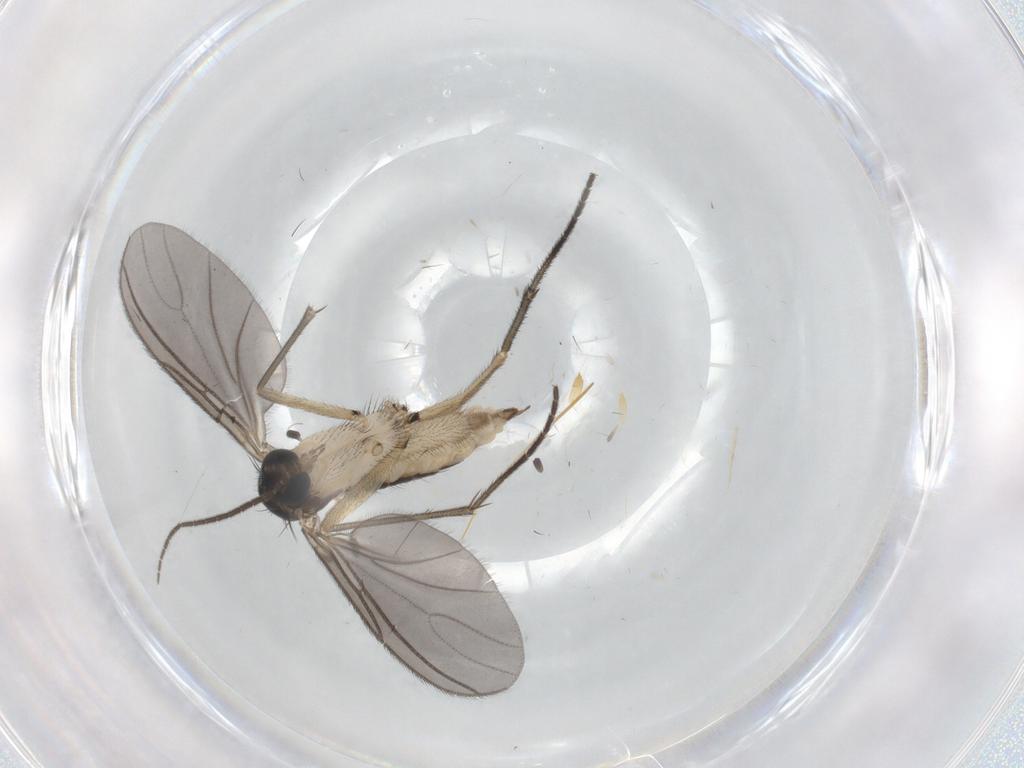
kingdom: Animalia
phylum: Arthropoda
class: Insecta
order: Diptera
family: Sciaridae
